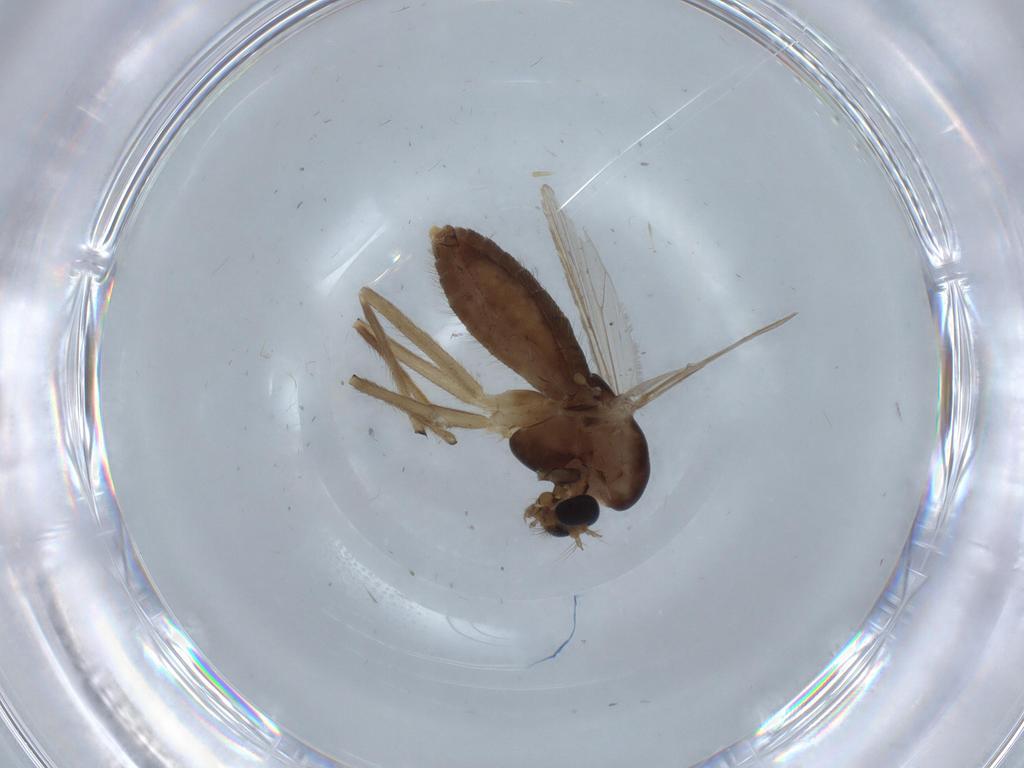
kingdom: Animalia
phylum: Arthropoda
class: Insecta
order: Diptera
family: Chironomidae
